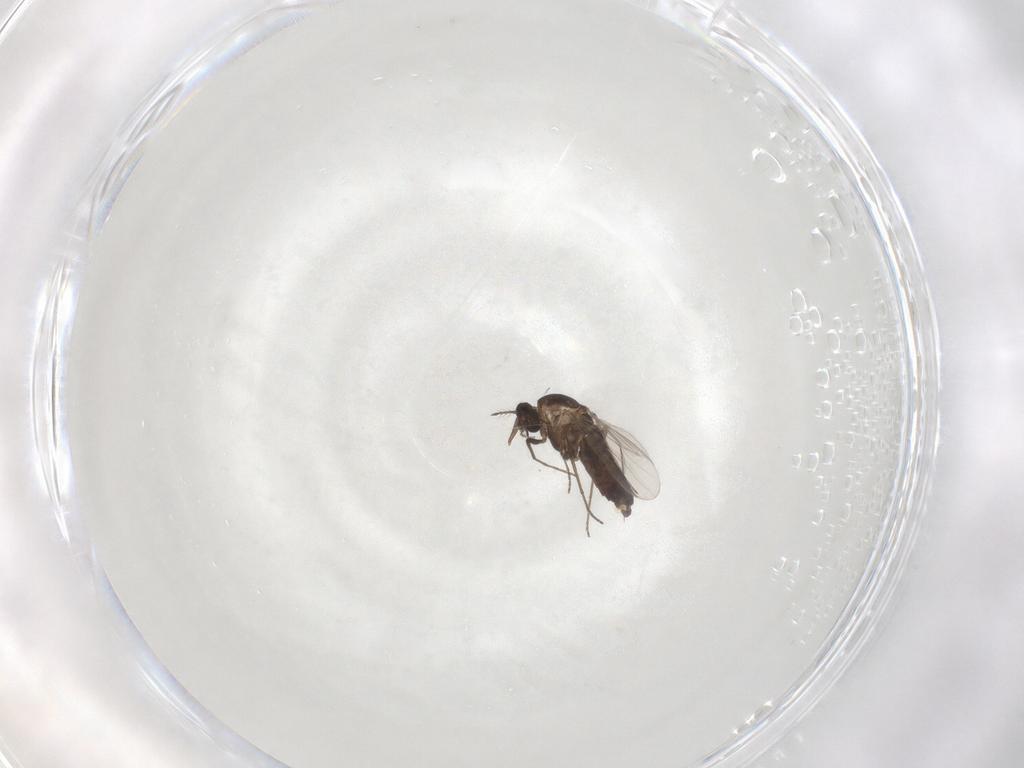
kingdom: Animalia
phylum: Arthropoda
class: Insecta
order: Diptera
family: Chironomidae
